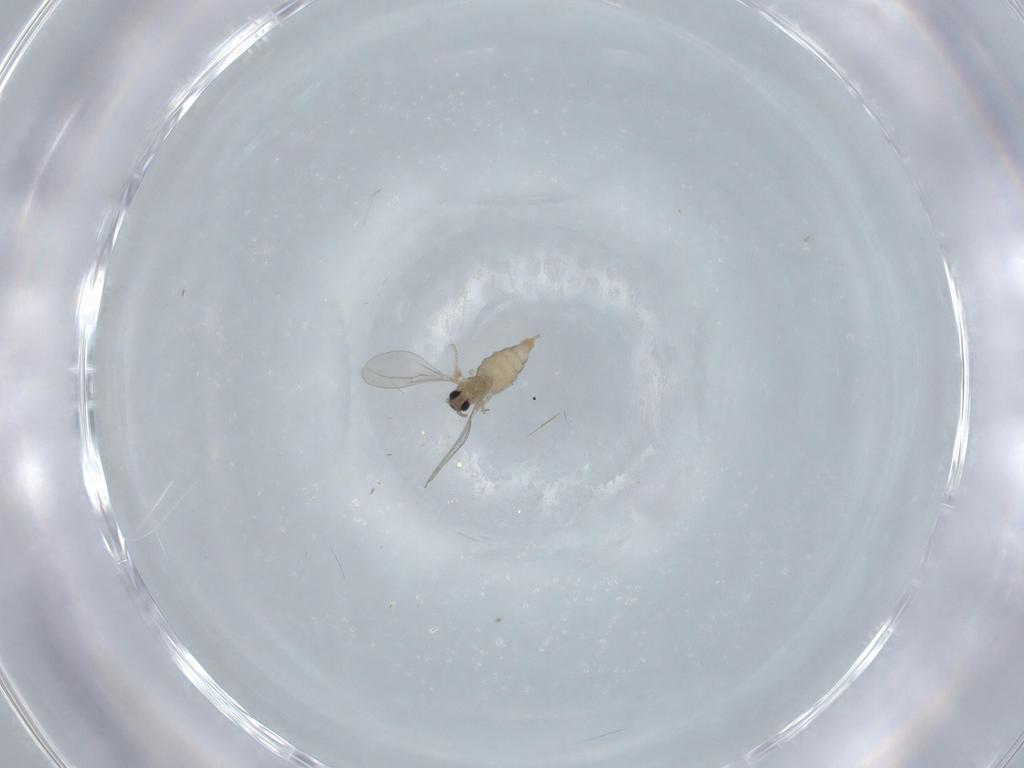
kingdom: Animalia
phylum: Arthropoda
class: Insecta
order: Diptera
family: Cecidomyiidae
